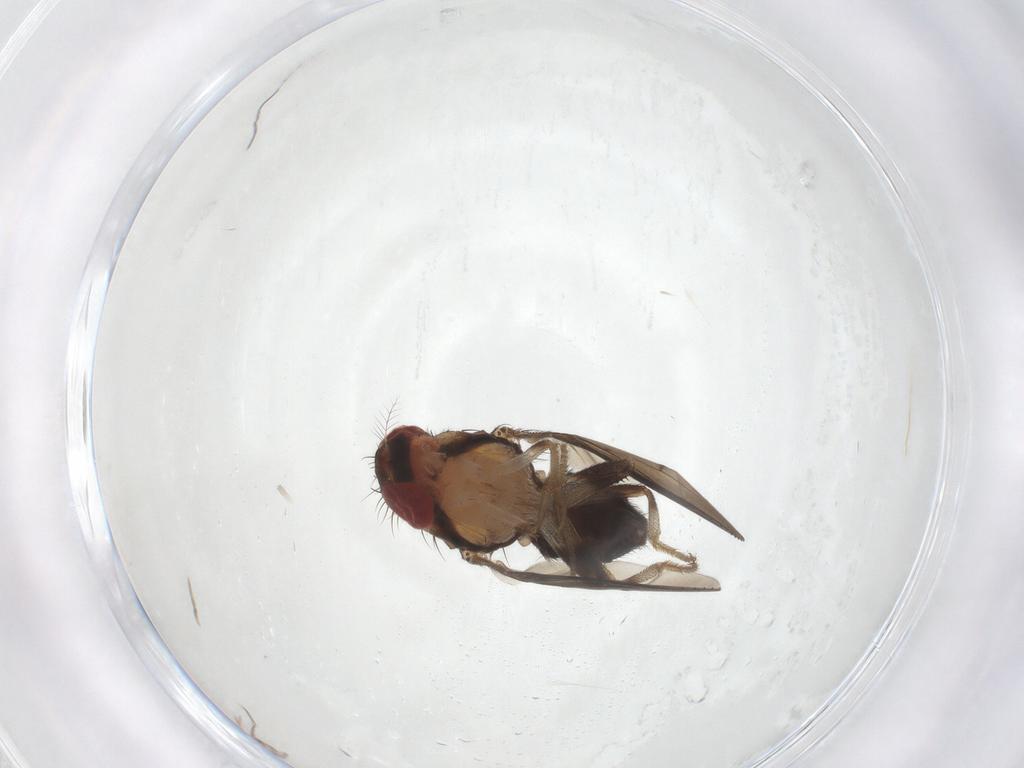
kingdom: Animalia
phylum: Arthropoda
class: Insecta
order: Diptera
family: Drosophilidae
